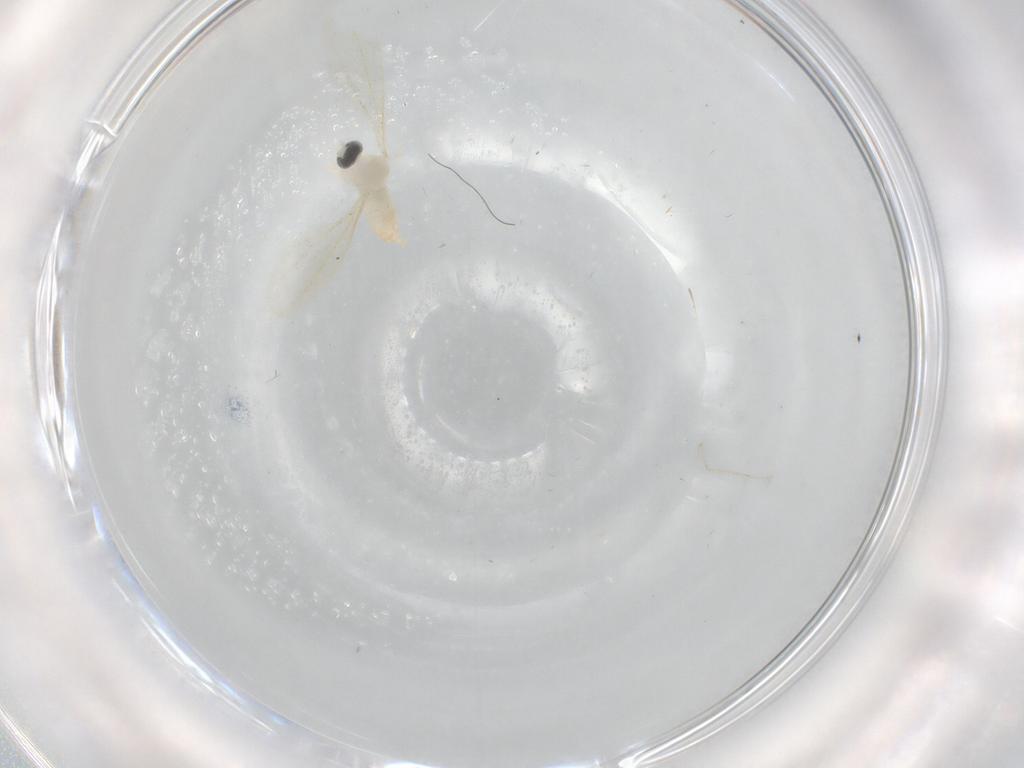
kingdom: Animalia
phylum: Arthropoda
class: Insecta
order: Diptera
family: Cecidomyiidae
